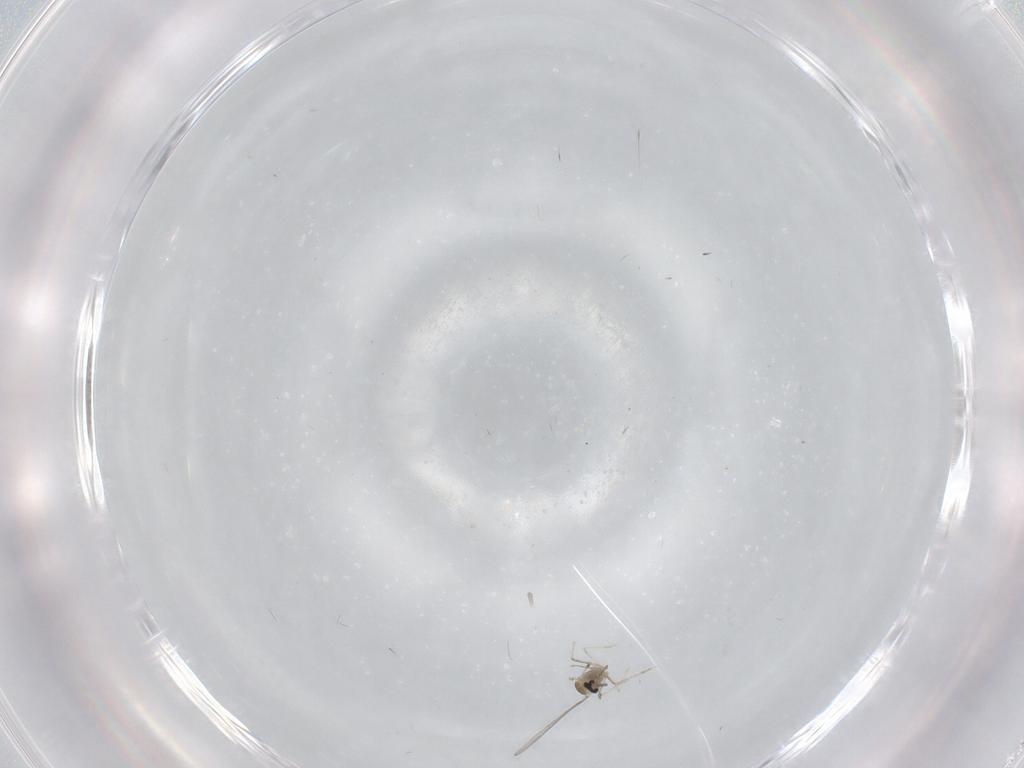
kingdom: Animalia
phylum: Arthropoda
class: Insecta
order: Diptera
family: Cecidomyiidae
